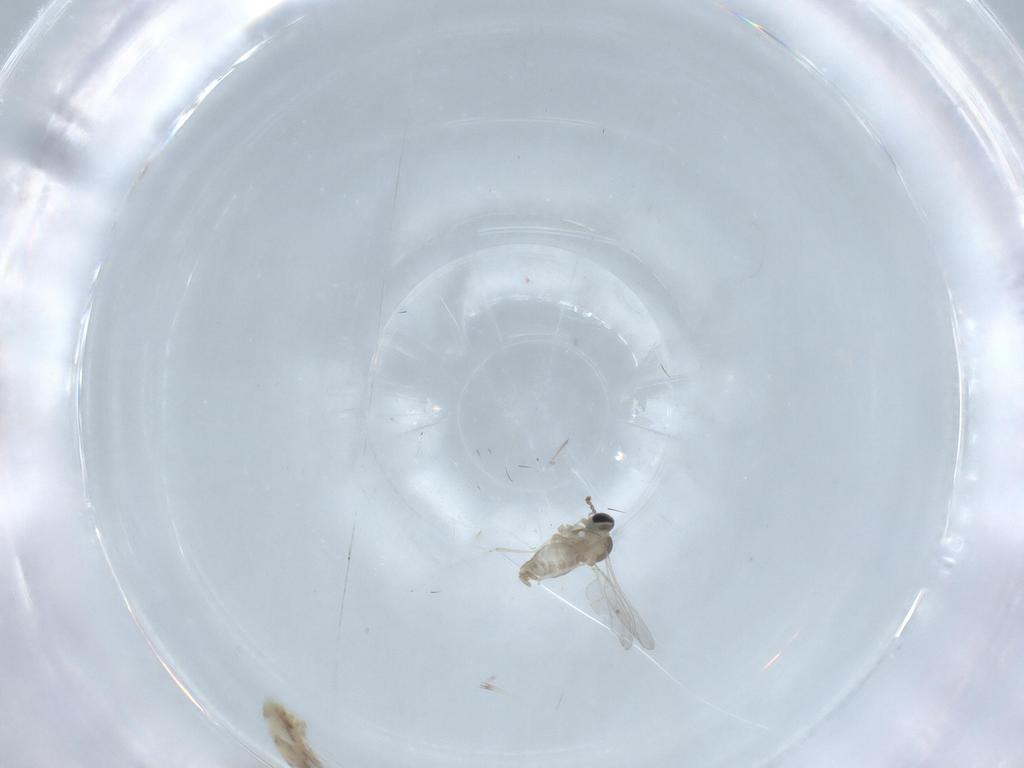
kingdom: Animalia
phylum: Arthropoda
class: Insecta
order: Diptera
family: Cecidomyiidae
